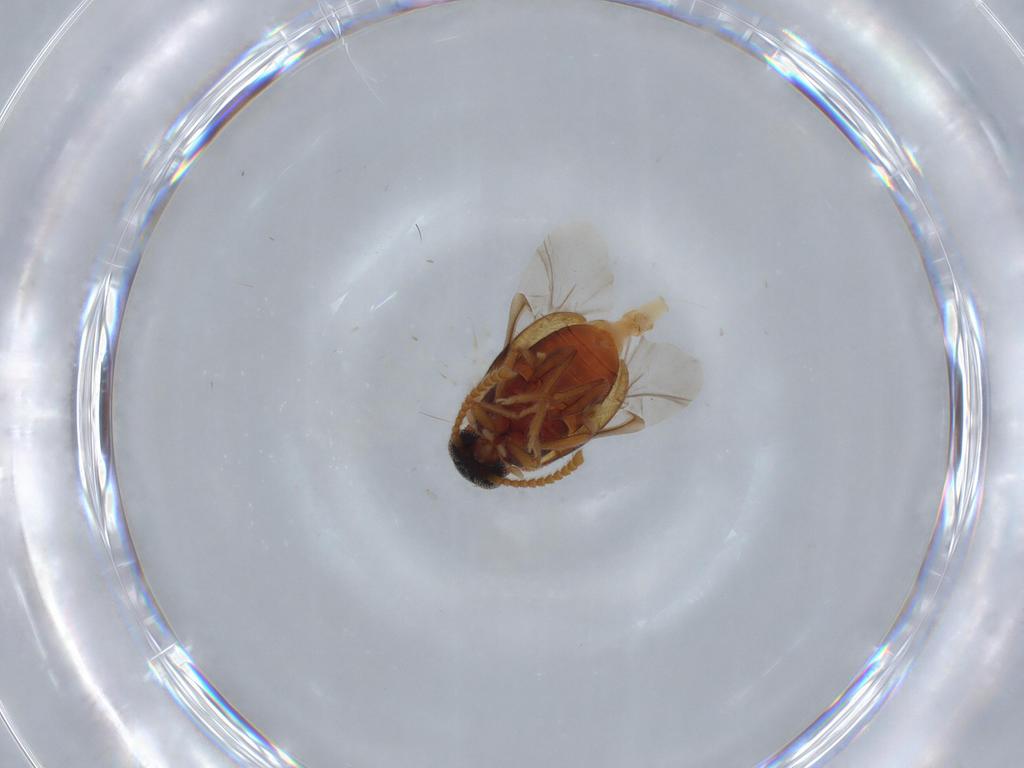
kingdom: Animalia
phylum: Arthropoda
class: Insecta
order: Coleoptera
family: Aderidae
